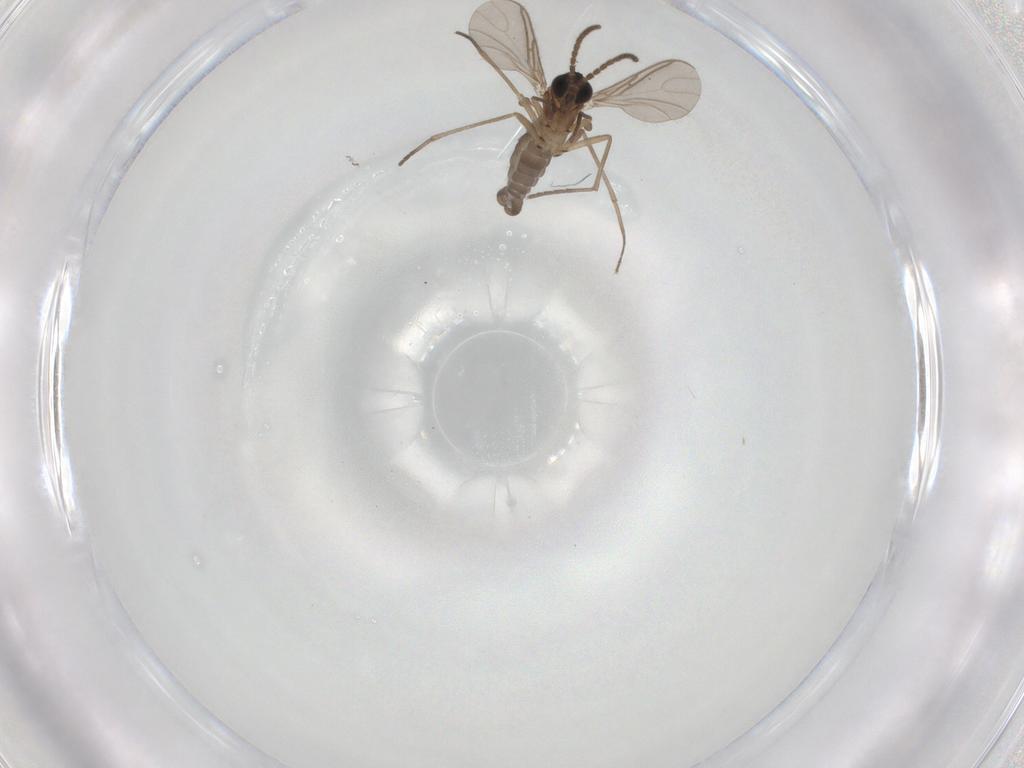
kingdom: Animalia
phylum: Arthropoda
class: Insecta
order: Diptera
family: Sciaridae
